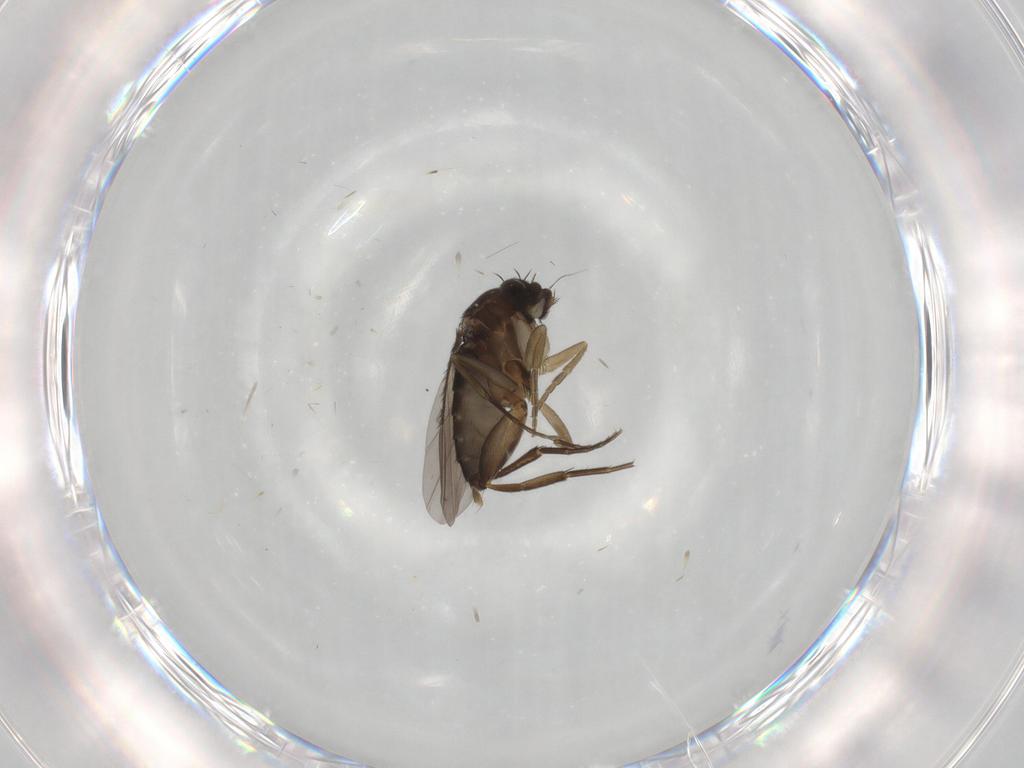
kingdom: Animalia
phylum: Arthropoda
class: Insecta
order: Diptera
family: Phoridae
